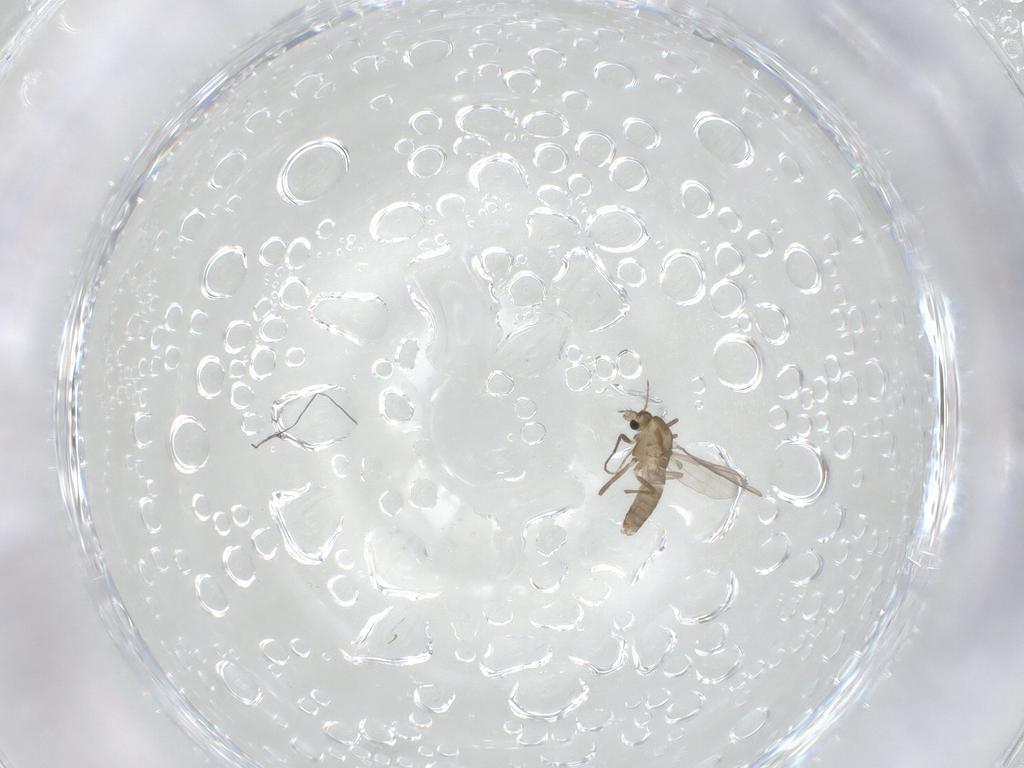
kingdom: Animalia
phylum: Arthropoda
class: Insecta
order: Diptera
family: Chironomidae
